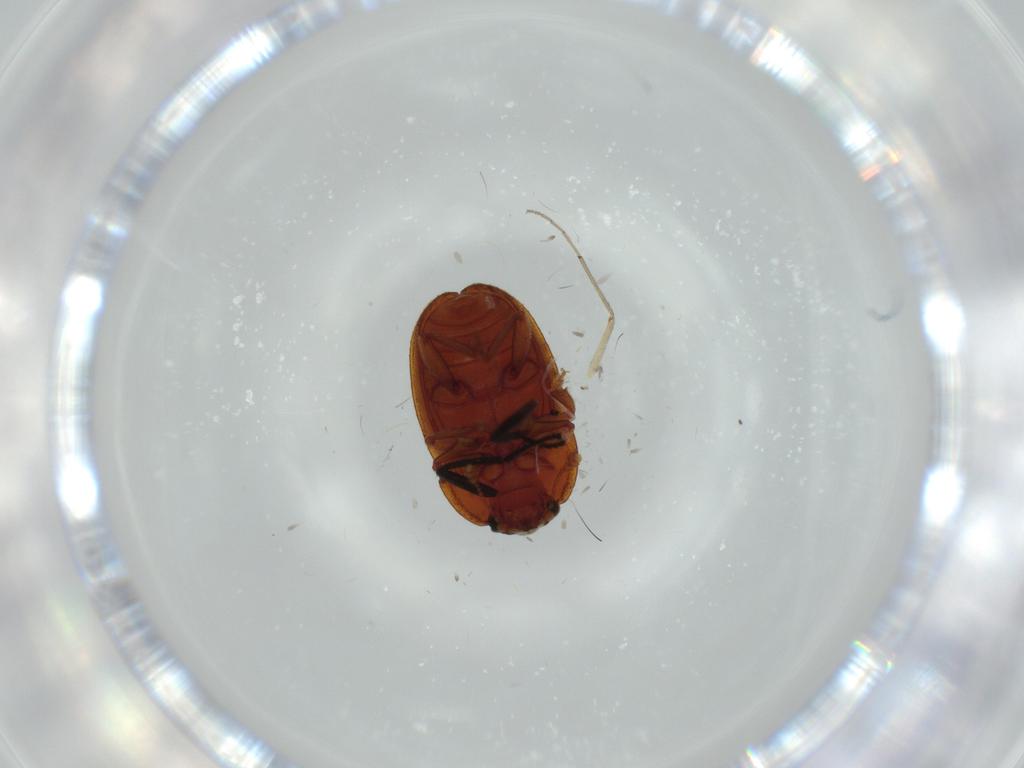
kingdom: Animalia
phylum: Arthropoda
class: Insecta
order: Coleoptera
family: Nitidulidae
